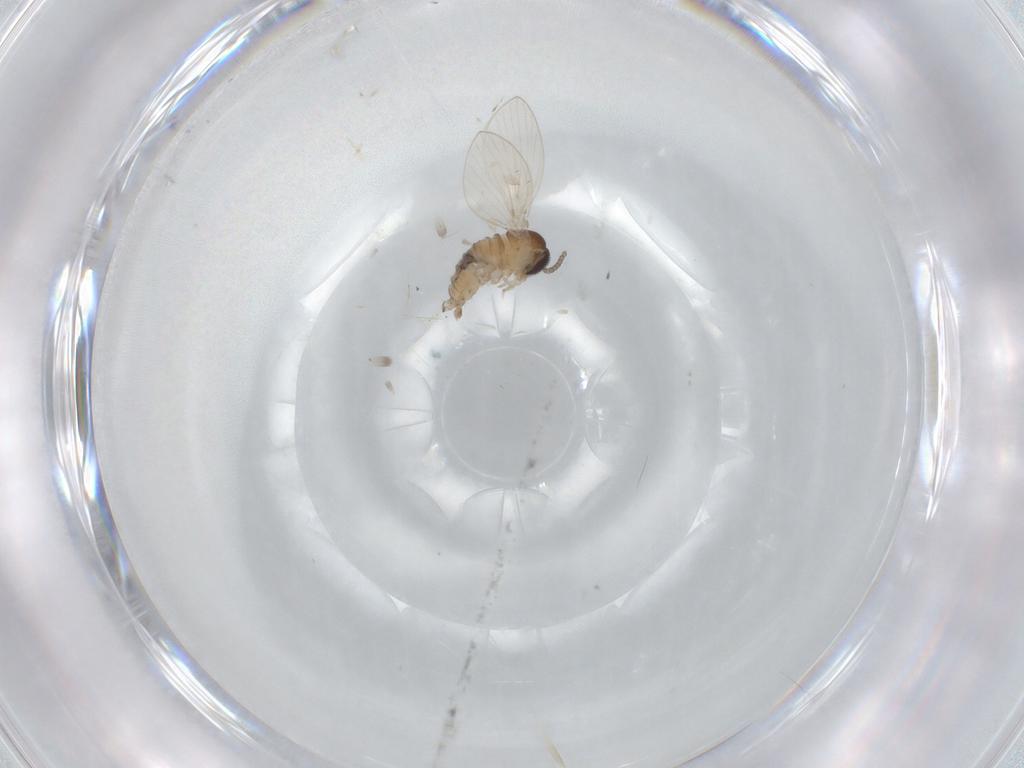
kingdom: Animalia
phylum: Arthropoda
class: Insecta
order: Diptera
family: Psychodidae
